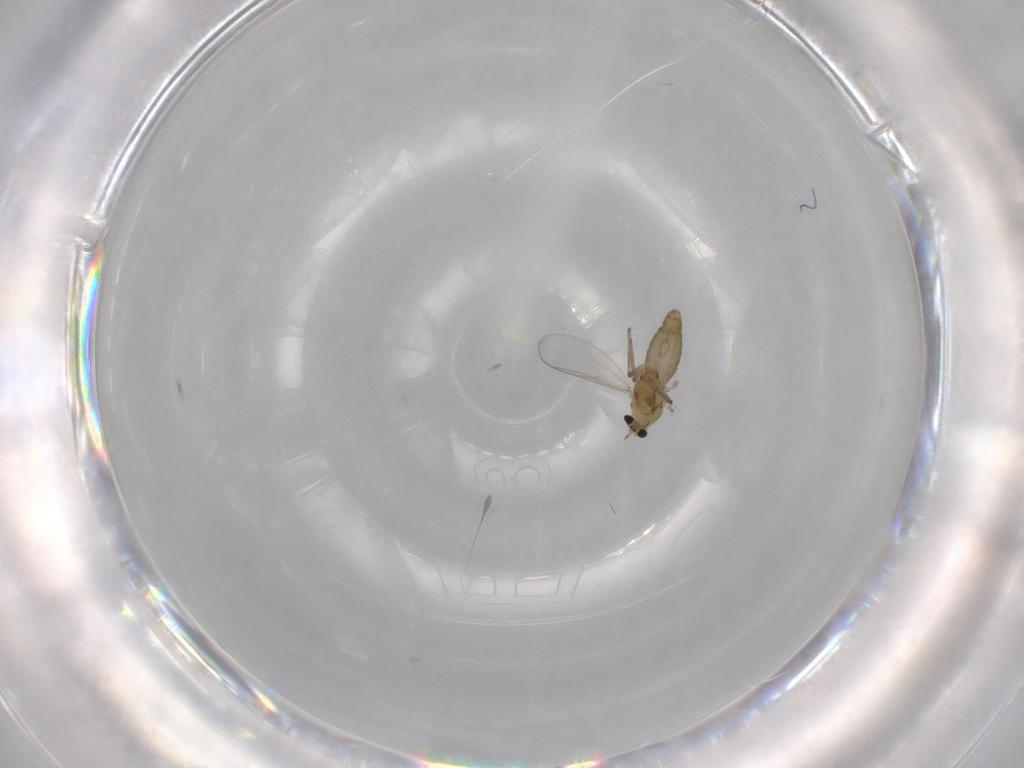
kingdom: Animalia
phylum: Arthropoda
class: Insecta
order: Diptera
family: Chironomidae
